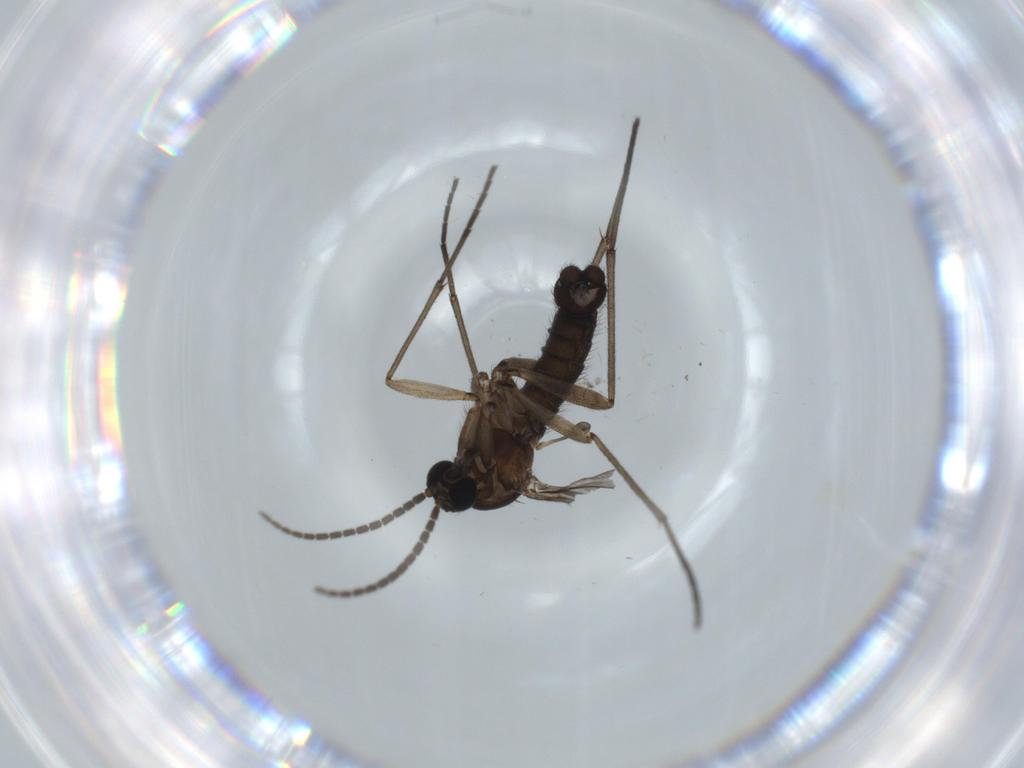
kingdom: Animalia
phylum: Arthropoda
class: Insecta
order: Diptera
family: Sciaridae
